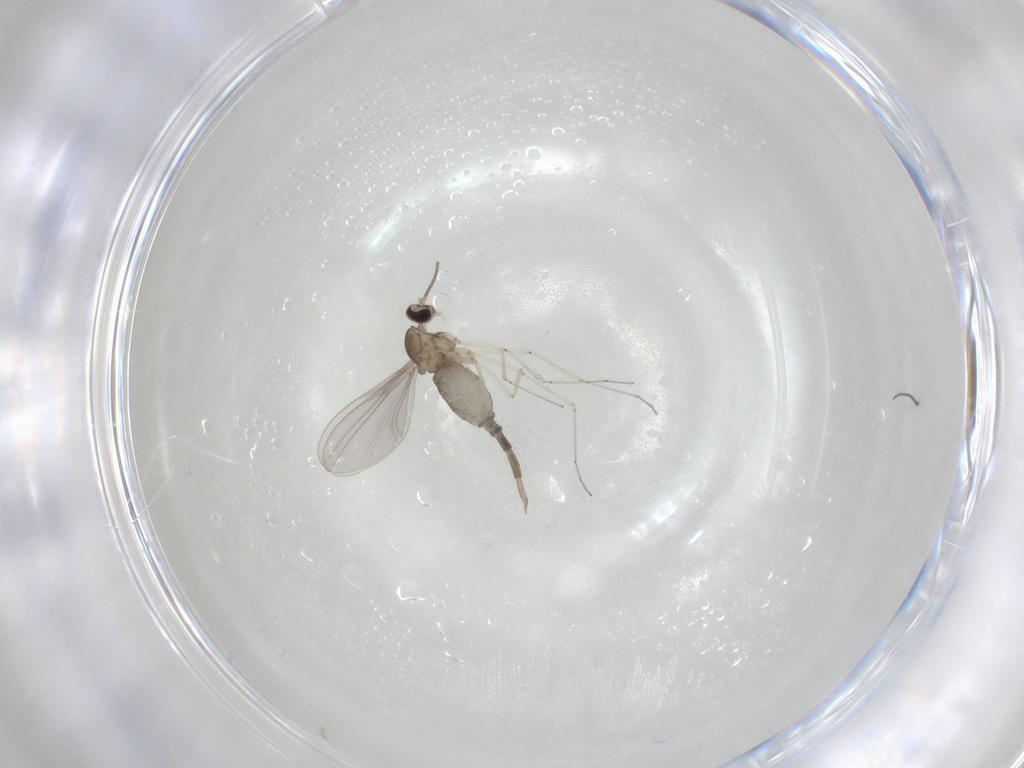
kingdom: Animalia
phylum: Arthropoda
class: Insecta
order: Diptera
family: Cecidomyiidae
